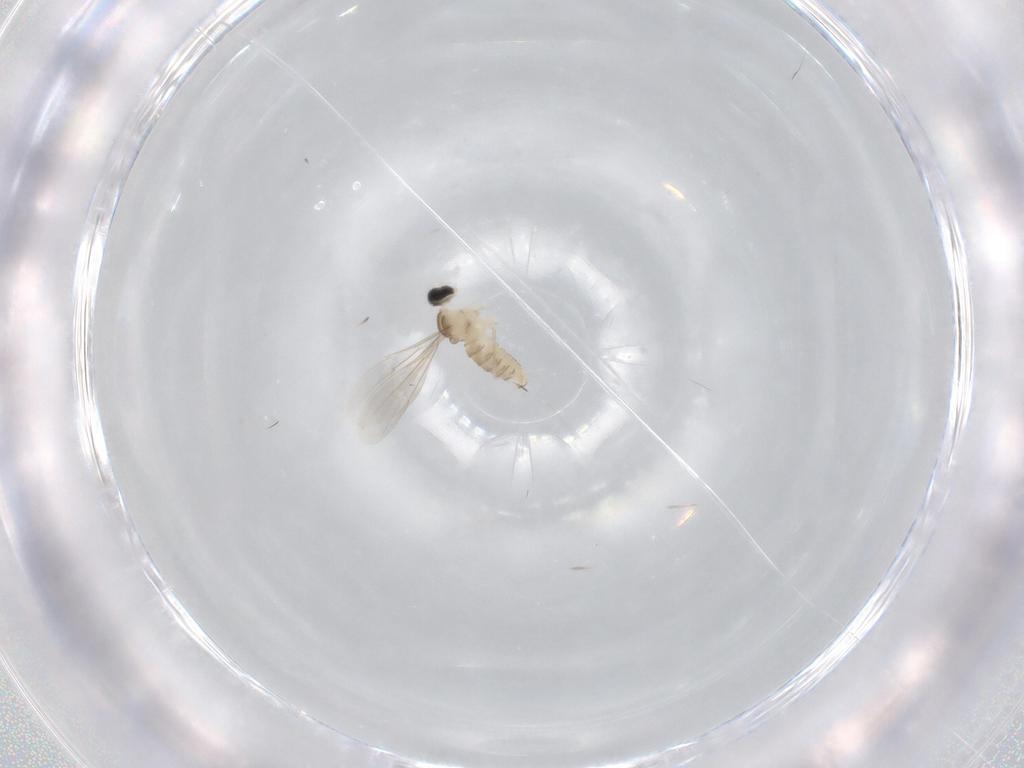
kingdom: Animalia
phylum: Arthropoda
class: Insecta
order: Diptera
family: Cecidomyiidae
